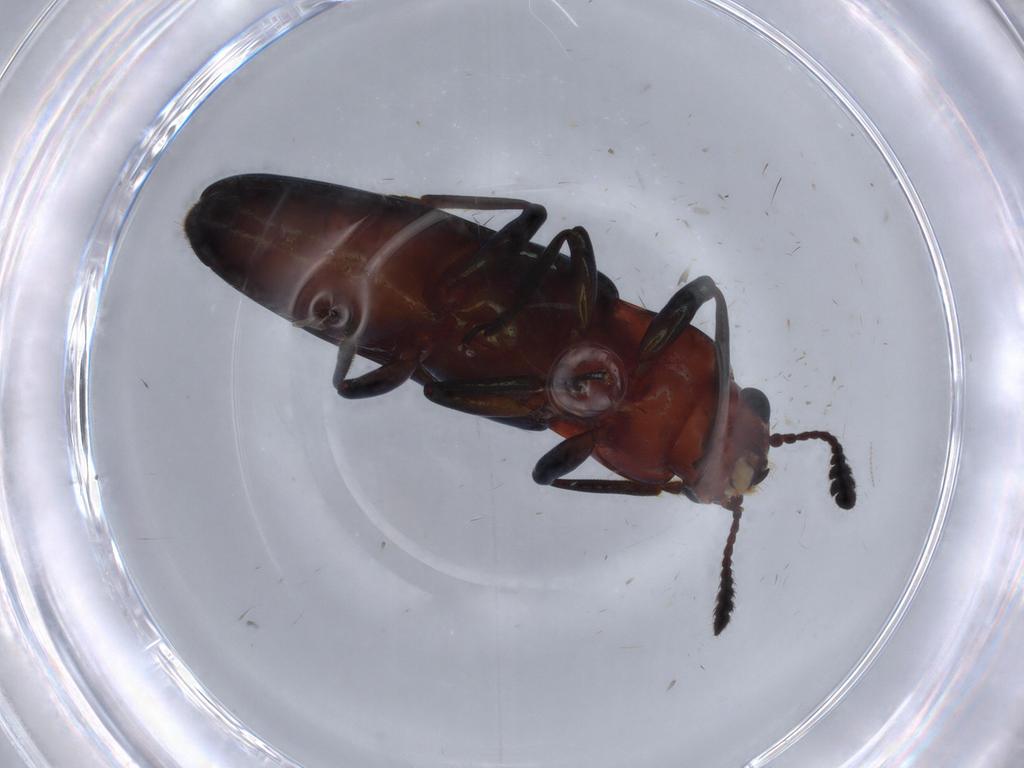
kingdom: Animalia
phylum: Arthropoda
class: Insecta
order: Coleoptera
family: Erotylidae
